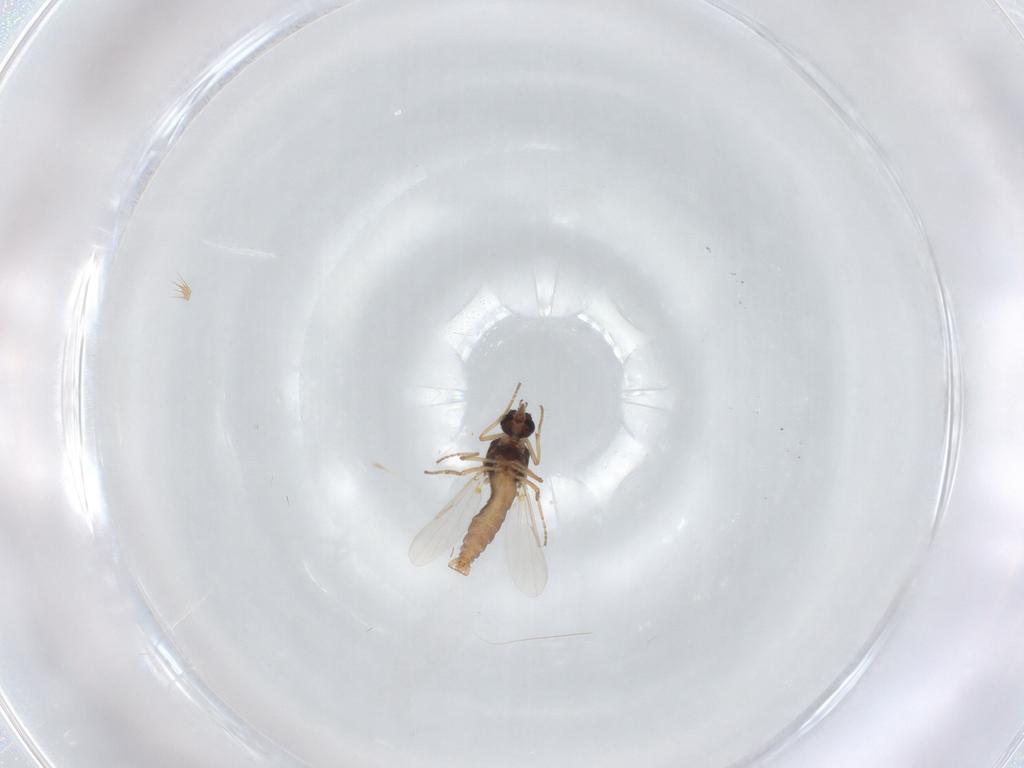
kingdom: Animalia
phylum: Arthropoda
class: Insecta
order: Diptera
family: Ceratopogonidae
